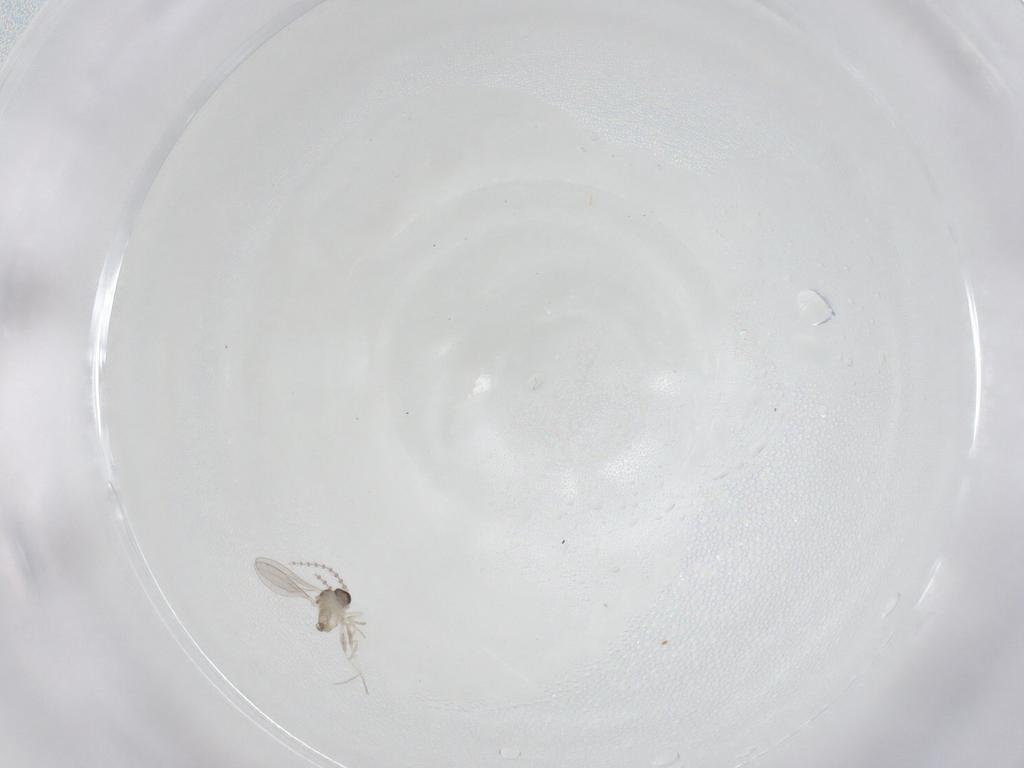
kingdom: Animalia
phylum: Arthropoda
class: Insecta
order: Diptera
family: Cecidomyiidae
